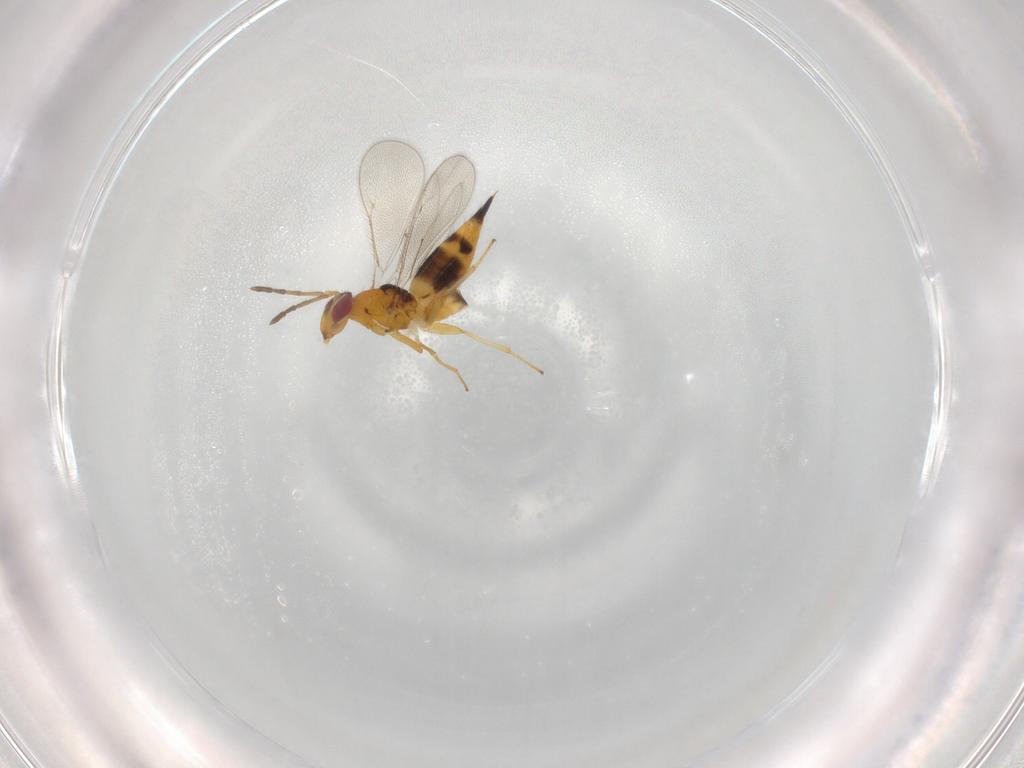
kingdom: Animalia
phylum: Arthropoda
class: Insecta
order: Hymenoptera
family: Eulophidae
